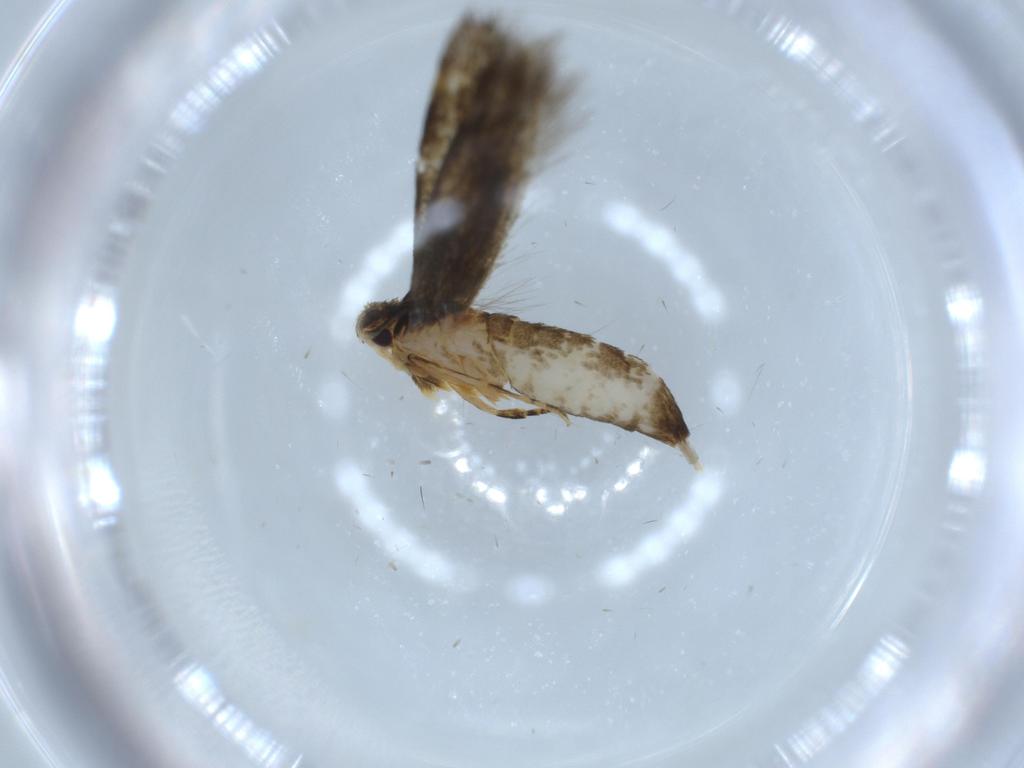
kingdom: Animalia
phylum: Arthropoda
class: Insecta
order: Lepidoptera
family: Tineidae
